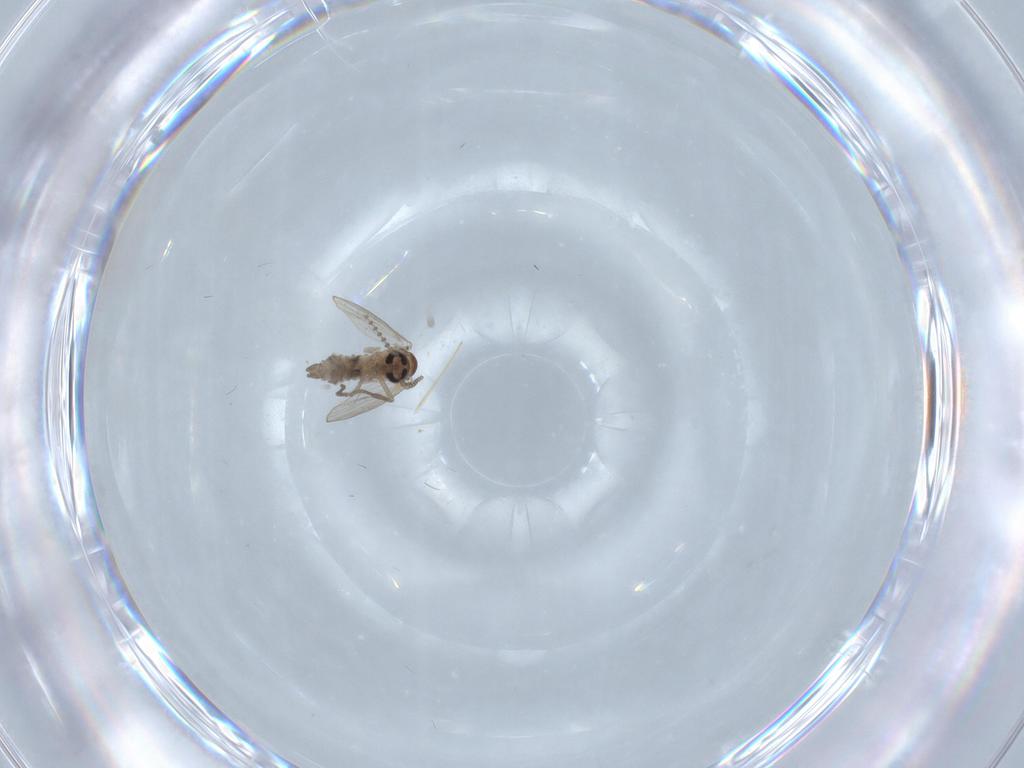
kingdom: Animalia
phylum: Arthropoda
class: Insecta
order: Diptera
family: Psychodidae
